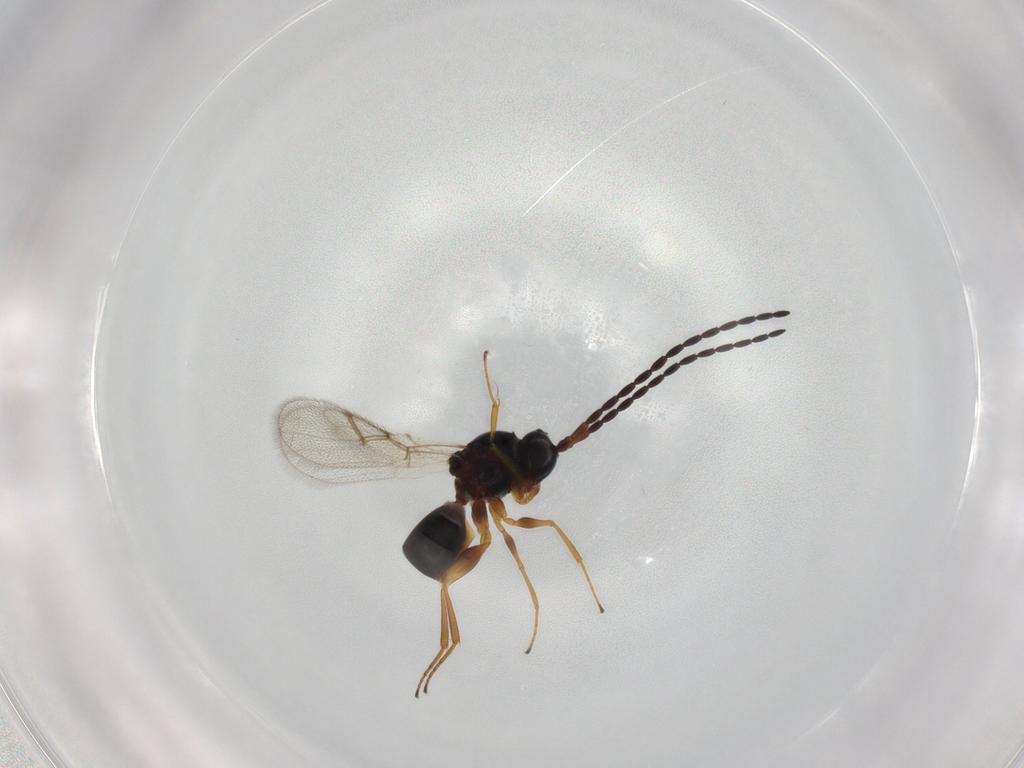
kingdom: Animalia
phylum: Arthropoda
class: Insecta
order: Hymenoptera
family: Figitidae
